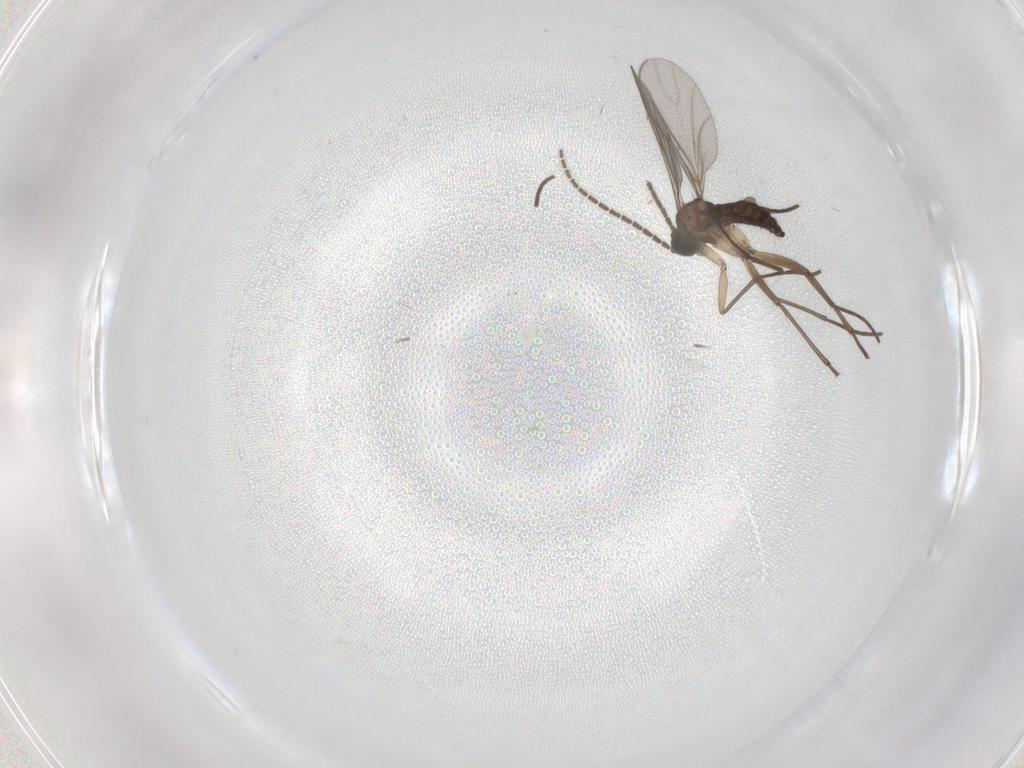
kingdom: Animalia
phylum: Arthropoda
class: Insecta
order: Diptera
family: Sciaridae
